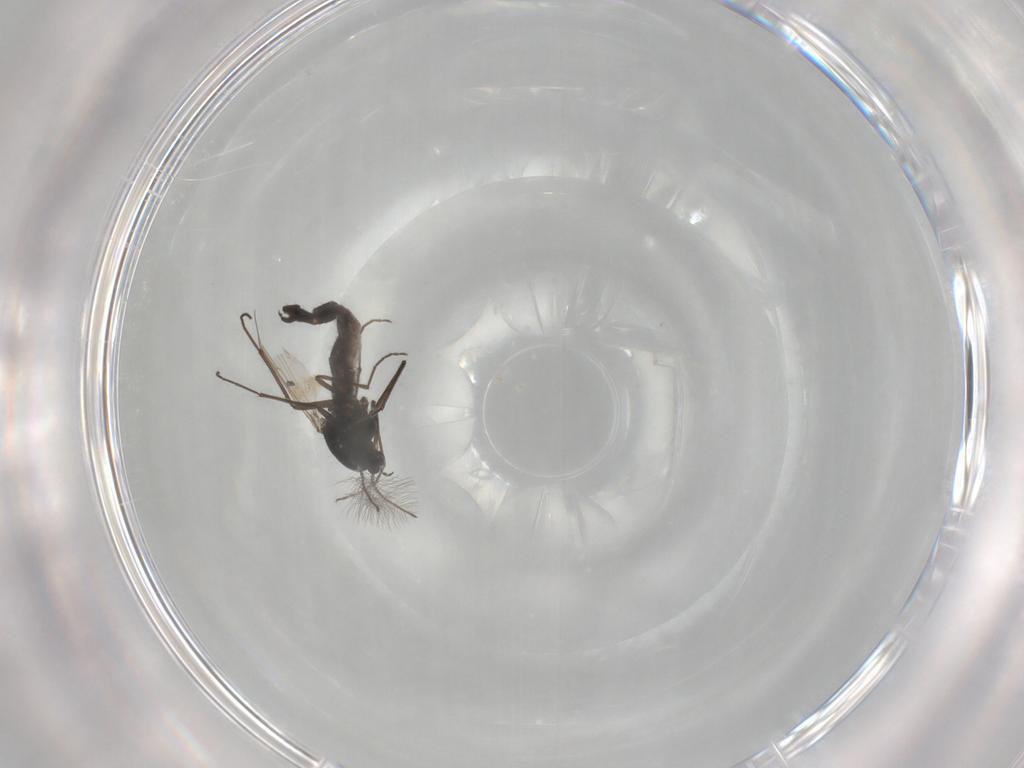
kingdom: Animalia
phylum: Arthropoda
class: Insecta
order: Diptera
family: Chironomidae
